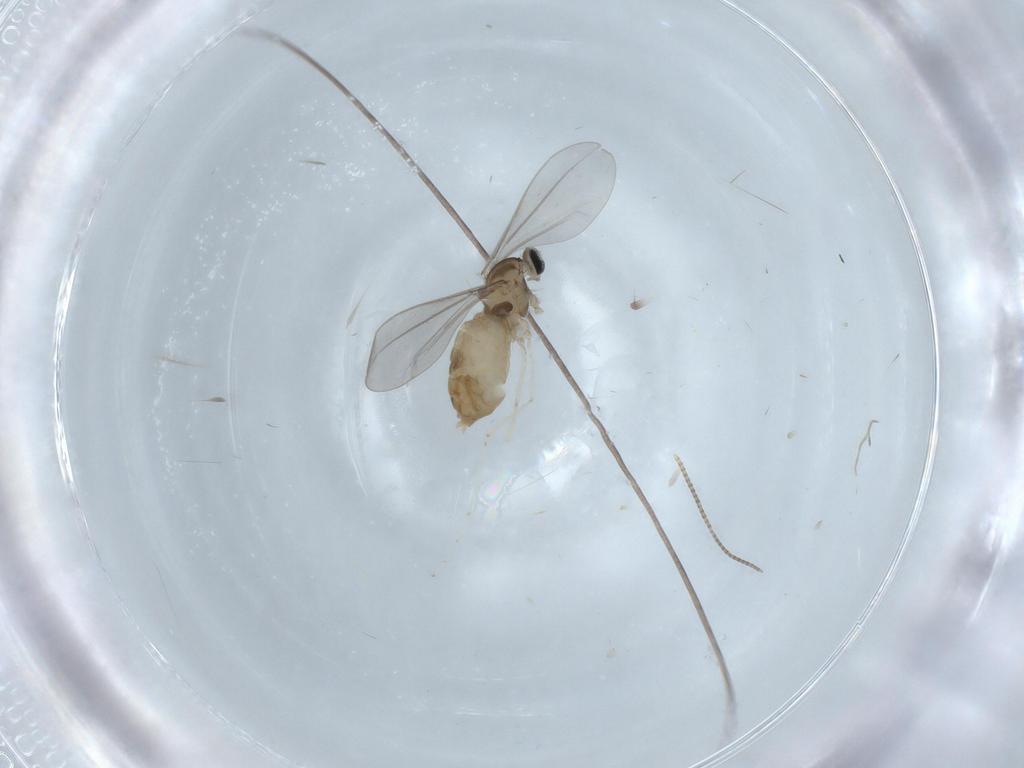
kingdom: Animalia
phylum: Arthropoda
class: Insecta
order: Diptera
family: Cecidomyiidae
